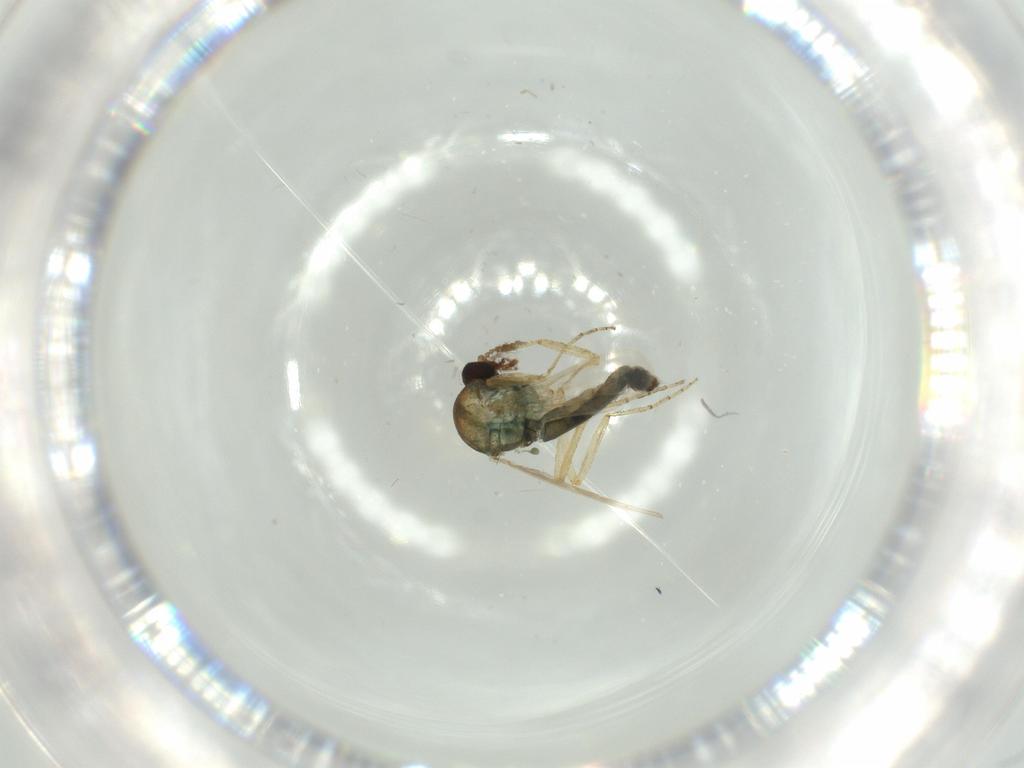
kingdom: Animalia
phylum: Arthropoda
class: Insecta
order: Diptera
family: Ceratopogonidae
